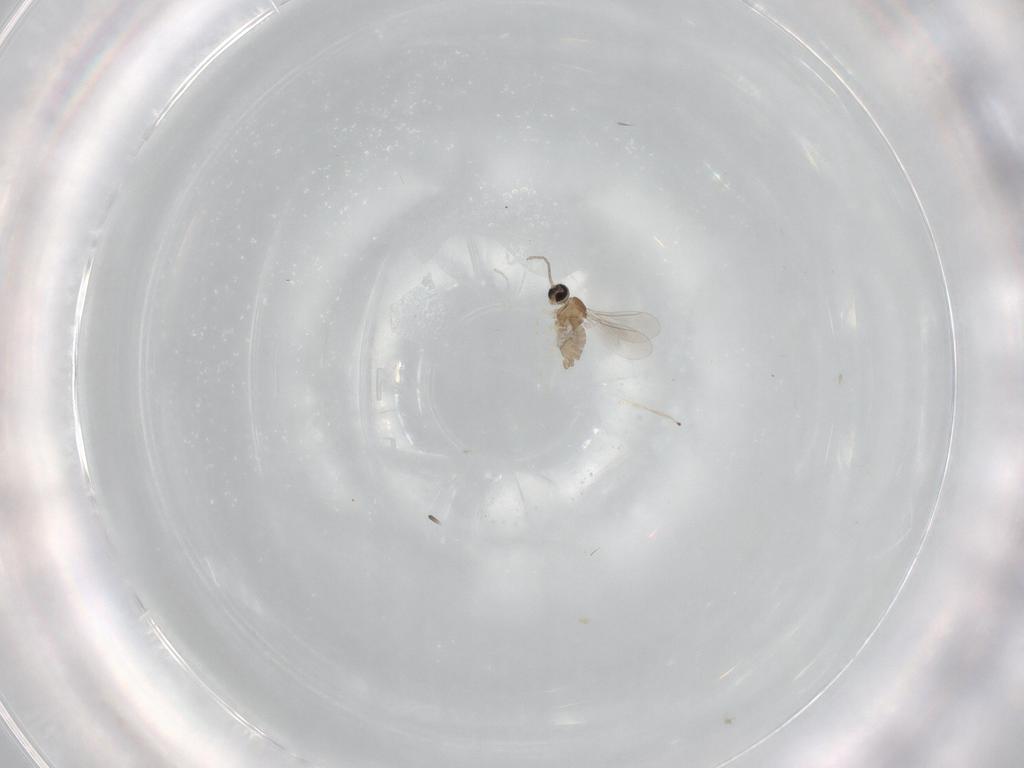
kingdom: Animalia
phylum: Arthropoda
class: Insecta
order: Diptera
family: Cecidomyiidae
